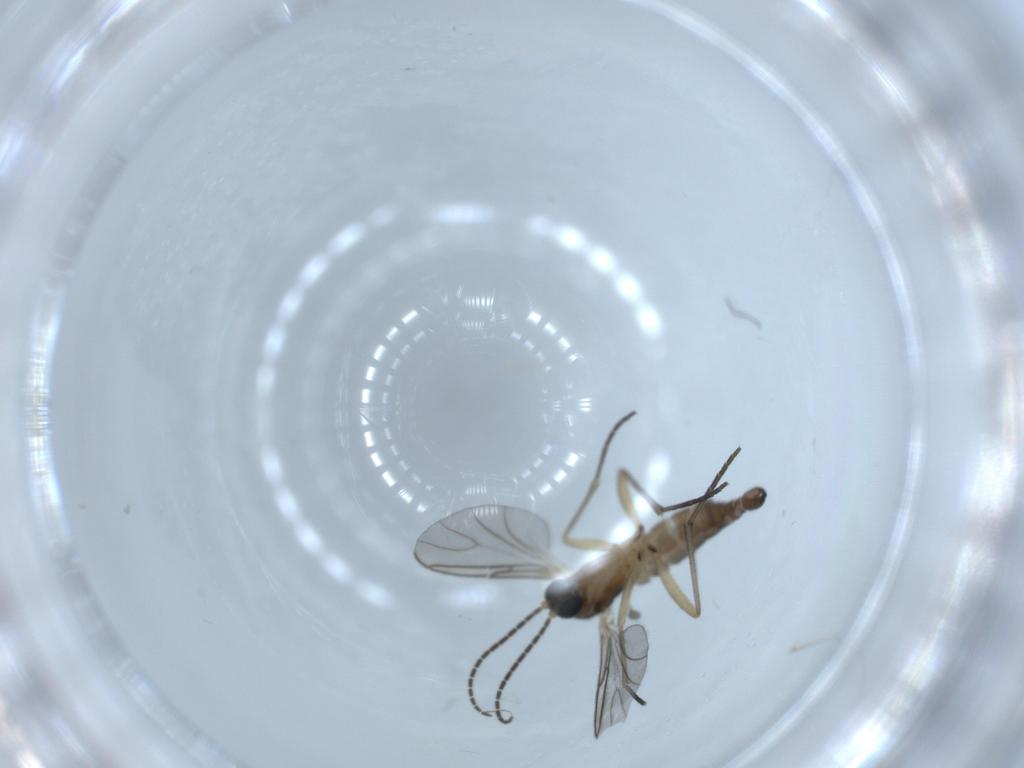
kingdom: Animalia
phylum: Arthropoda
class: Insecta
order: Diptera
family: Sciaridae
